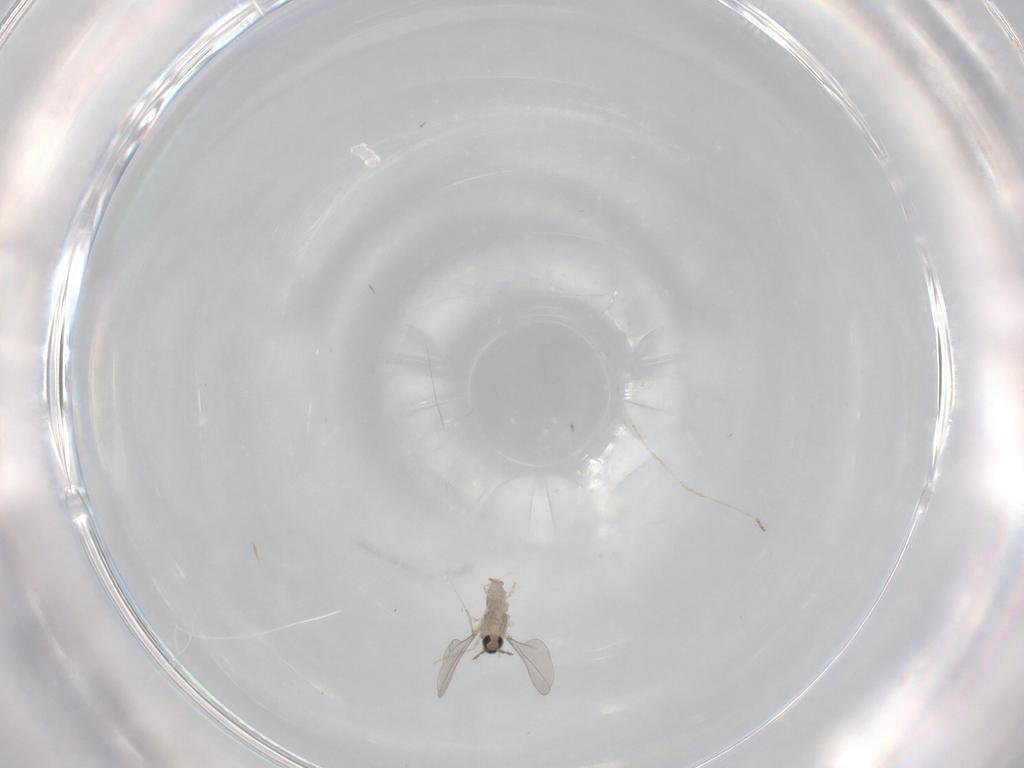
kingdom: Animalia
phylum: Arthropoda
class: Insecta
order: Diptera
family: Cecidomyiidae
